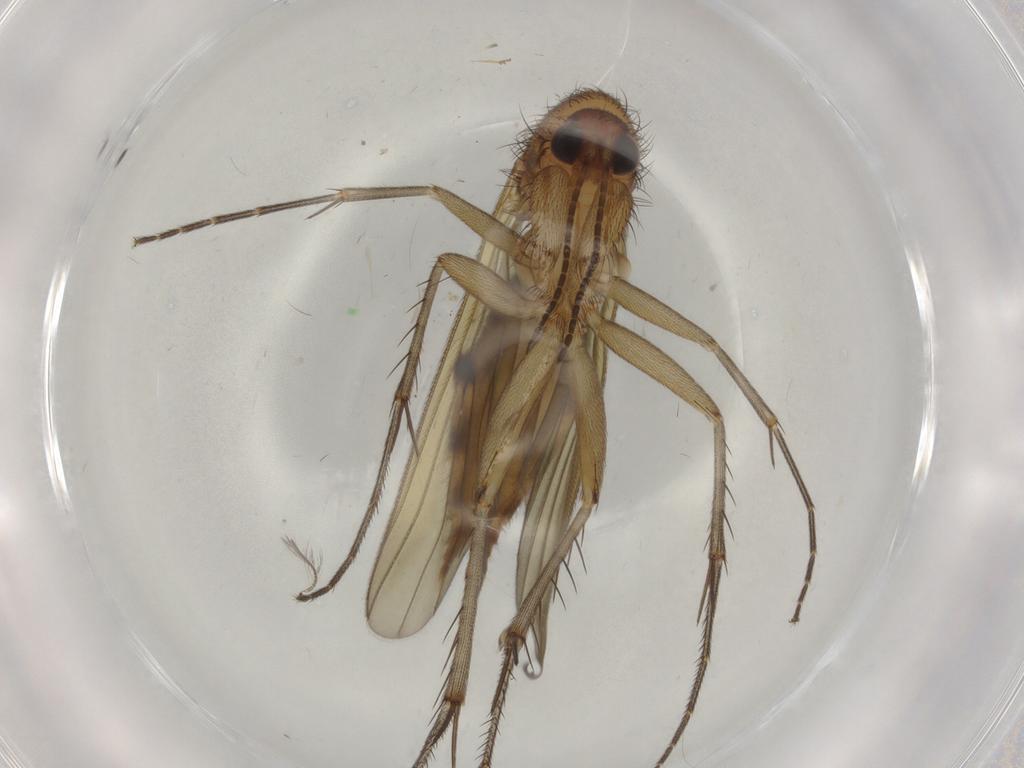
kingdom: Animalia
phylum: Arthropoda
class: Insecta
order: Diptera
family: Mycetophilidae
